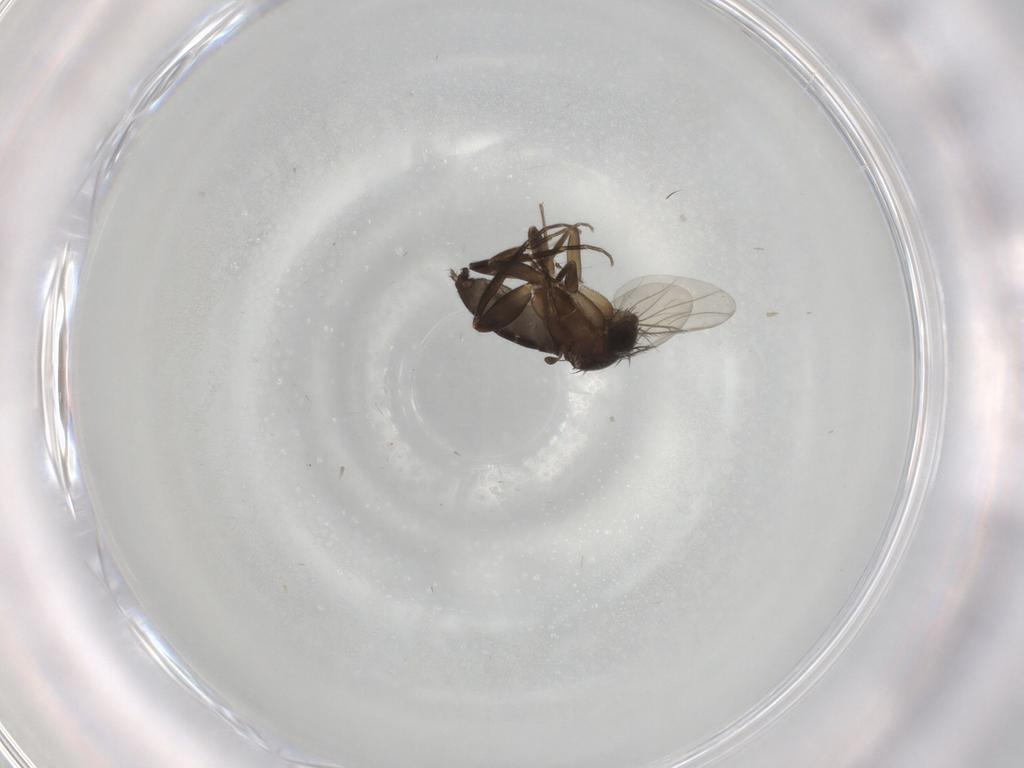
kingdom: Animalia
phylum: Arthropoda
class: Insecta
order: Diptera
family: Phoridae
